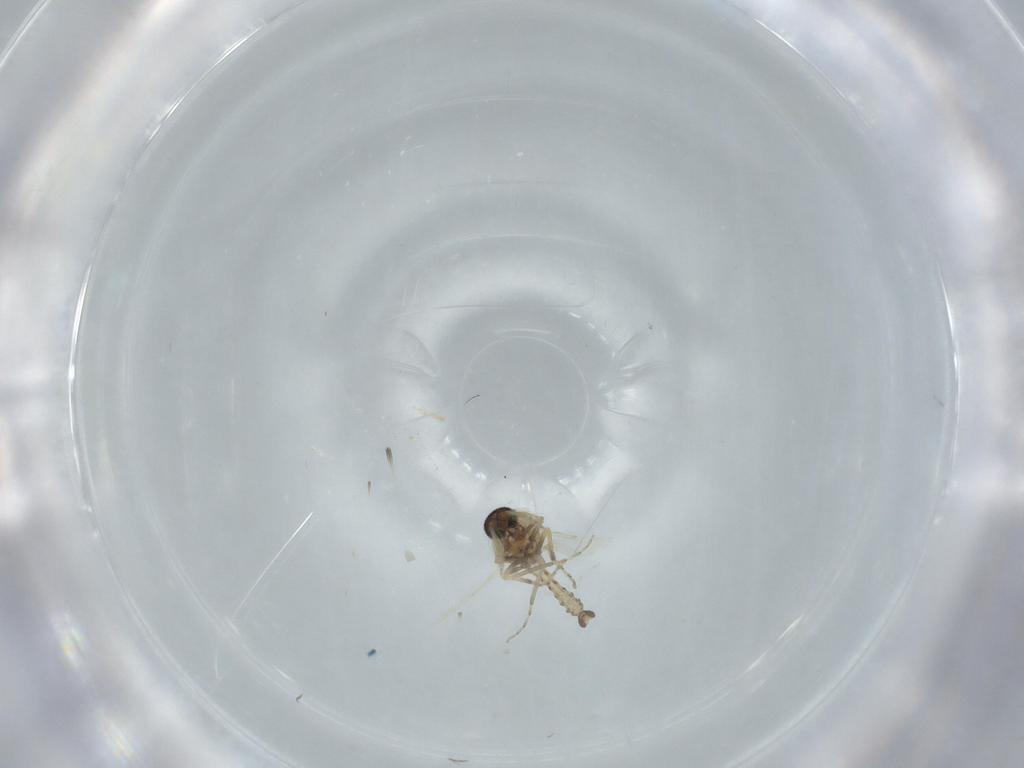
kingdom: Animalia
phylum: Arthropoda
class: Insecta
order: Diptera
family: Ceratopogonidae
